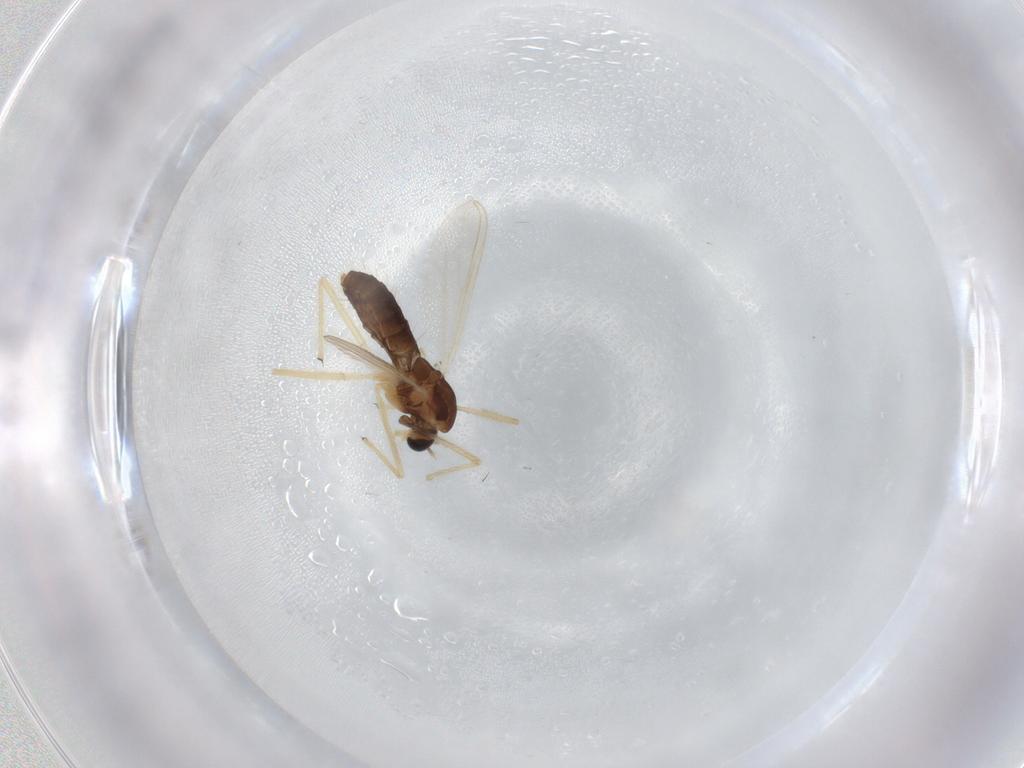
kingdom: Animalia
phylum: Arthropoda
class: Insecta
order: Diptera
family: Chironomidae
